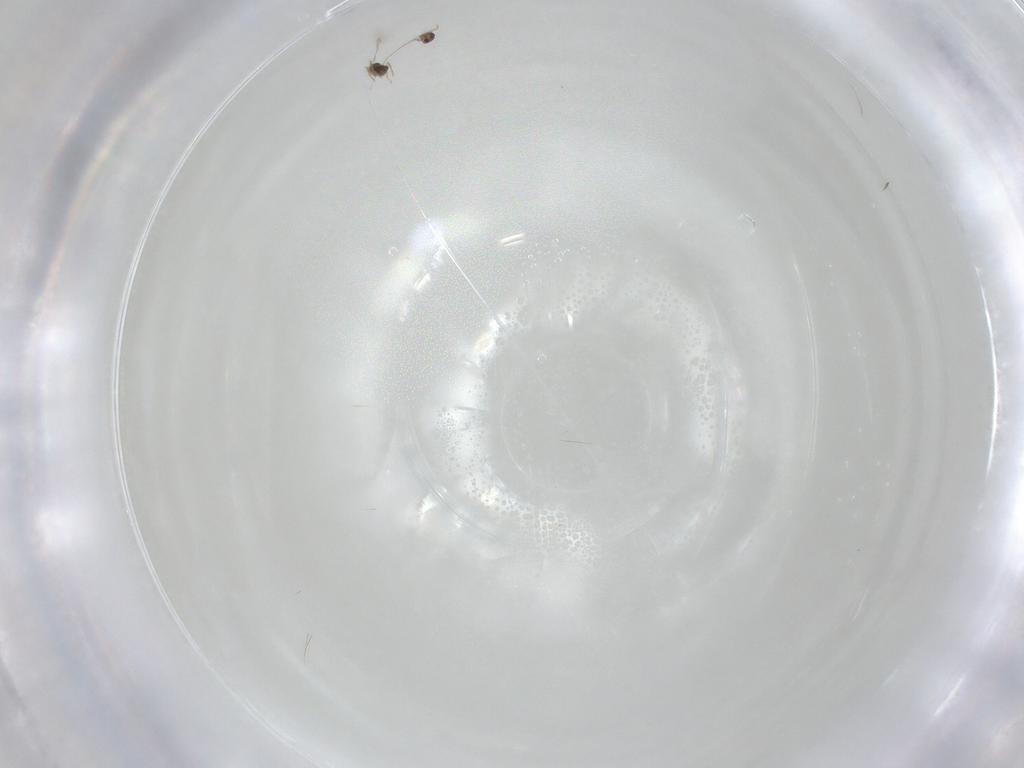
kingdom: Animalia
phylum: Arthropoda
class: Insecta
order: Hymenoptera
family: Mymaridae
